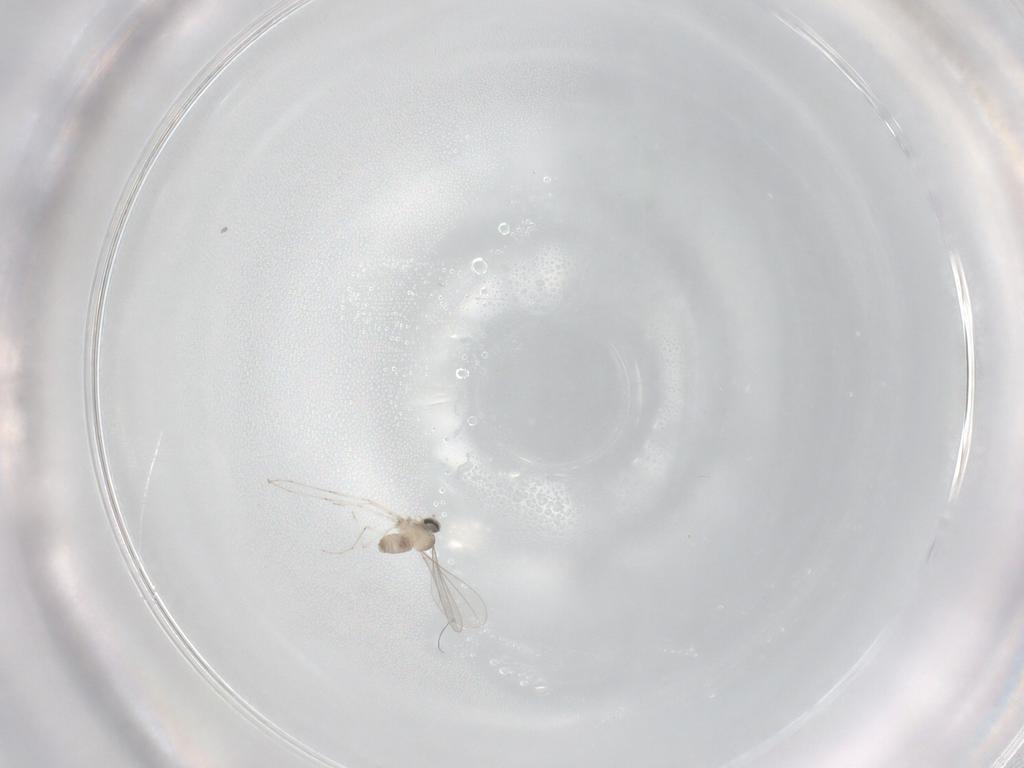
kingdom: Animalia
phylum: Arthropoda
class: Insecta
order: Diptera
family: Cecidomyiidae
